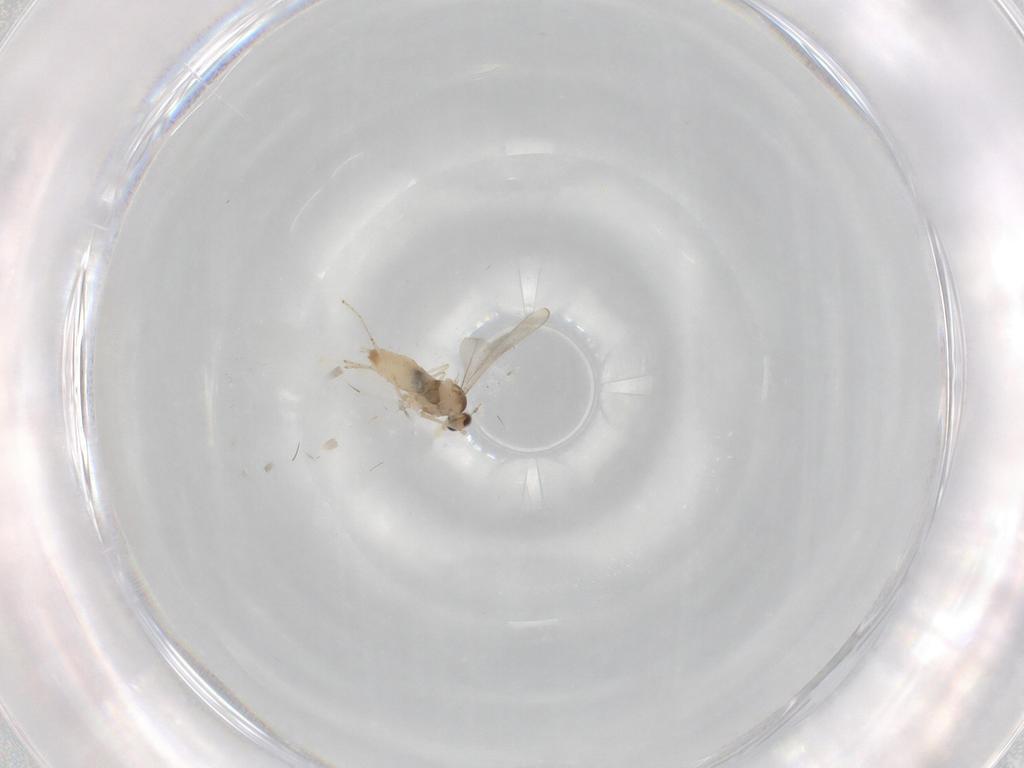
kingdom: Animalia
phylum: Arthropoda
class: Insecta
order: Diptera
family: Cecidomyiidae
